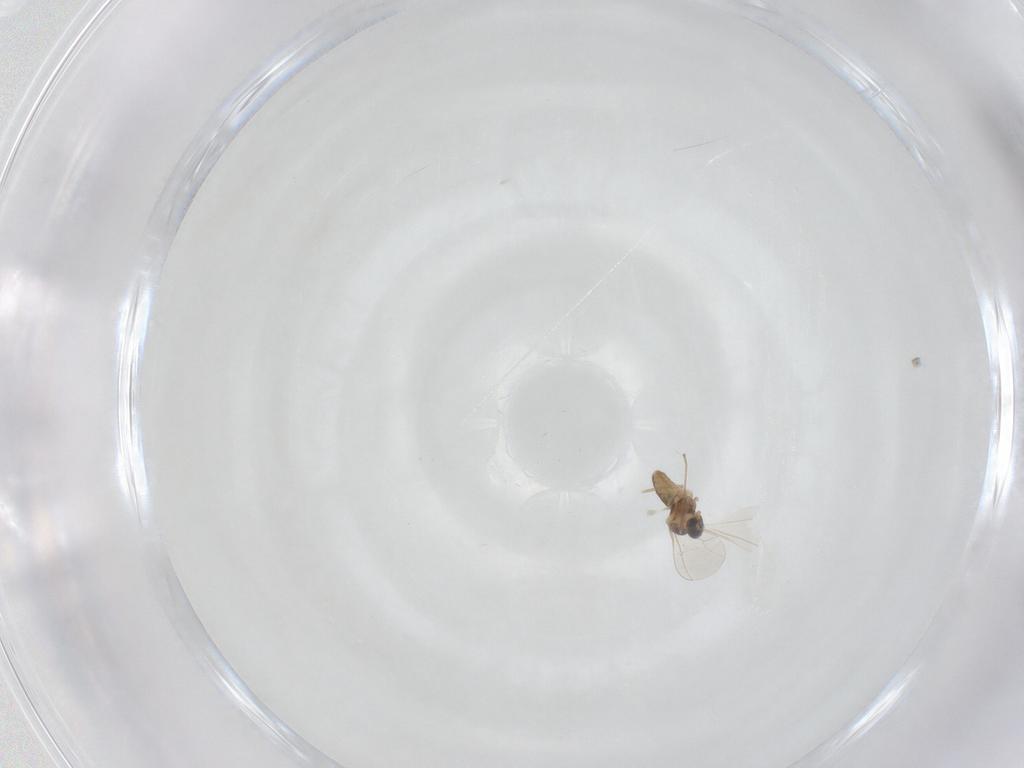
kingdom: Animalia
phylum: Arthropoda
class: Insecta
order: Diptera
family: Cecidomyiidae
